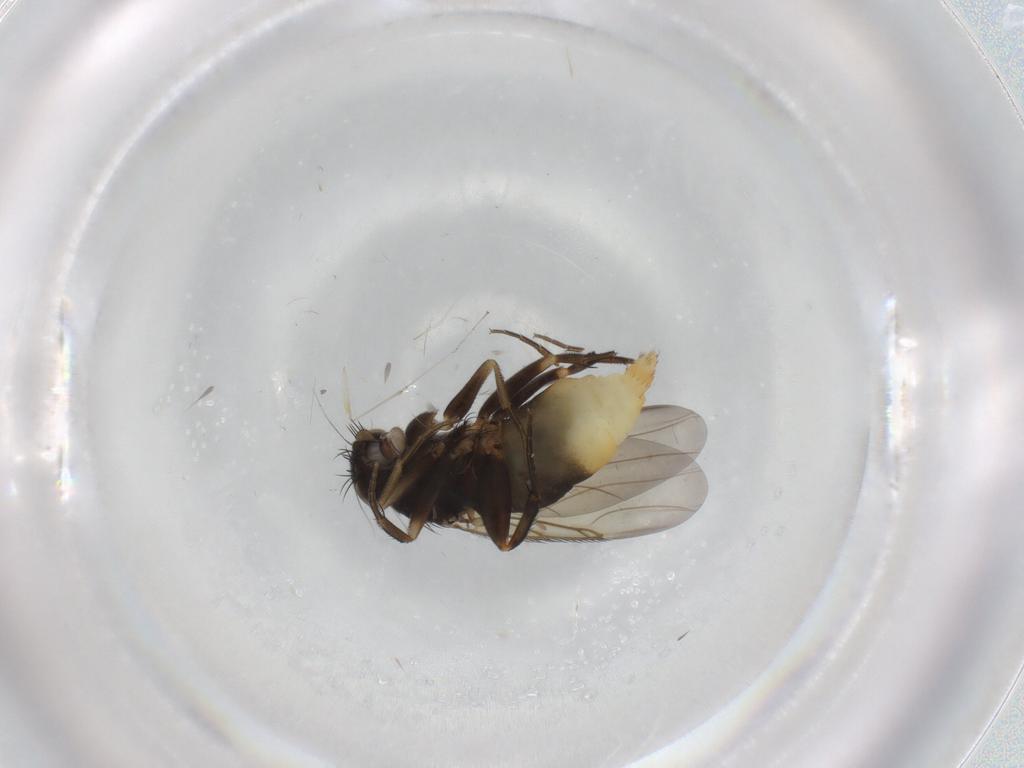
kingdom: Animalia
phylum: Arthropoda
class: Insecta
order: Diptera
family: Phoridae
